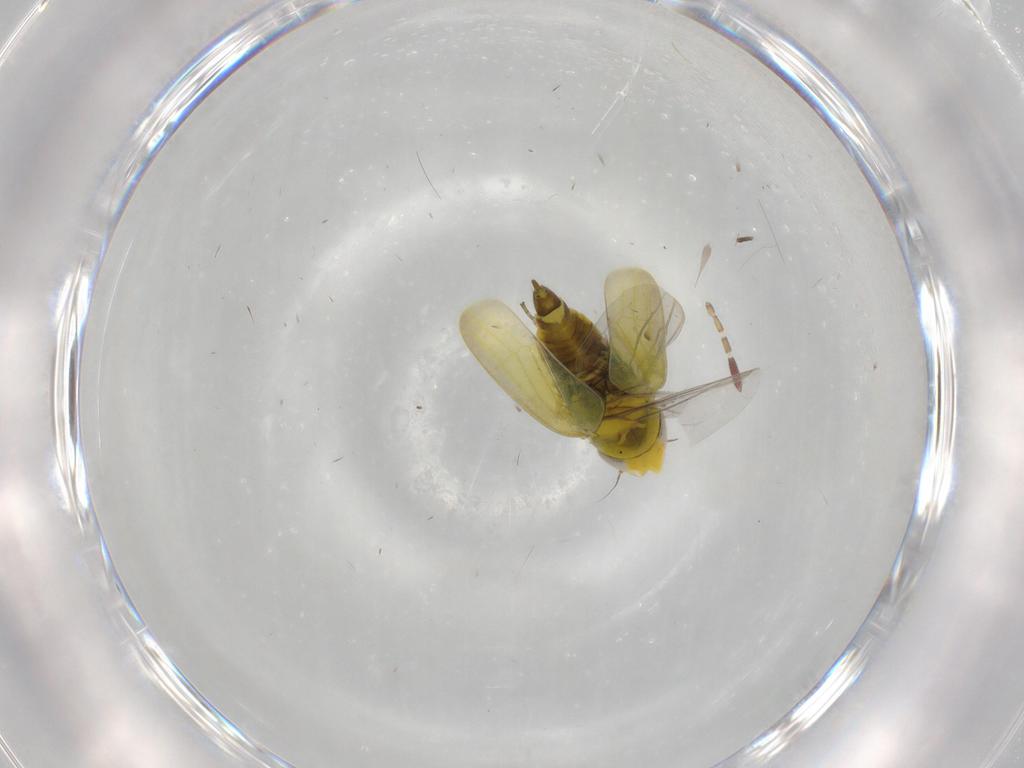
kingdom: Animalia
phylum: Arthropoda
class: Insecta
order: Hemiptera
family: Cicadellidae
